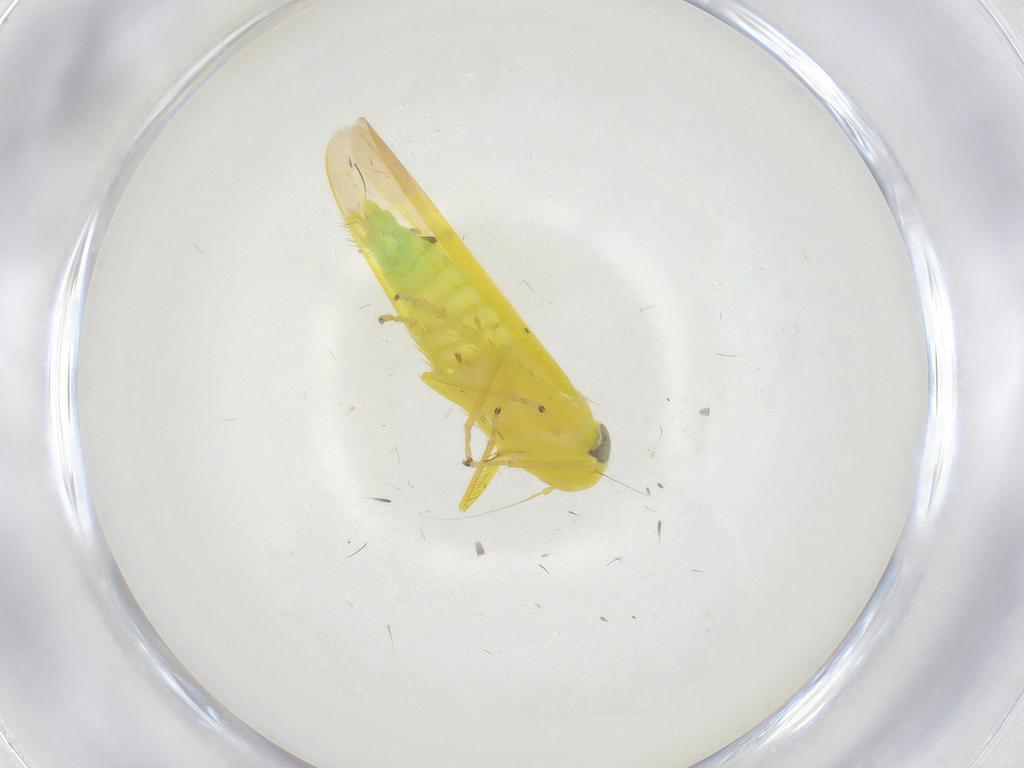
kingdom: Animalia
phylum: Arthropoda
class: Insecta
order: Hemiptera
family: Cicadellidae
